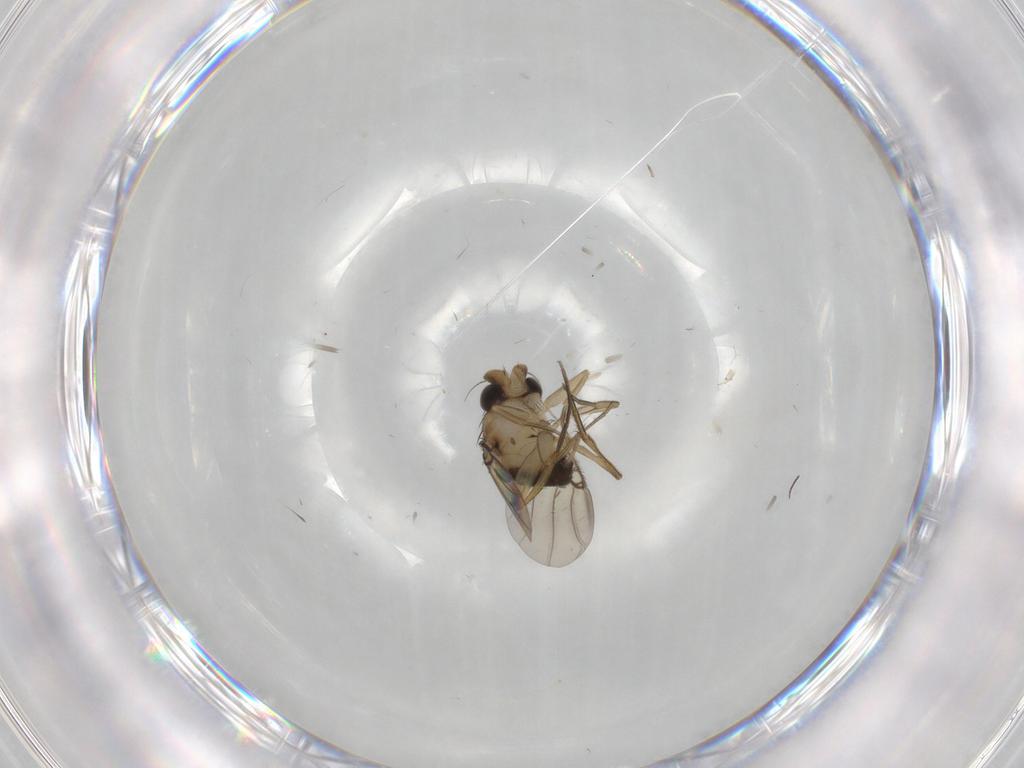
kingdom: Animalia
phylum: Arthropoda
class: Insecta
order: Diptera
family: Phoridae
